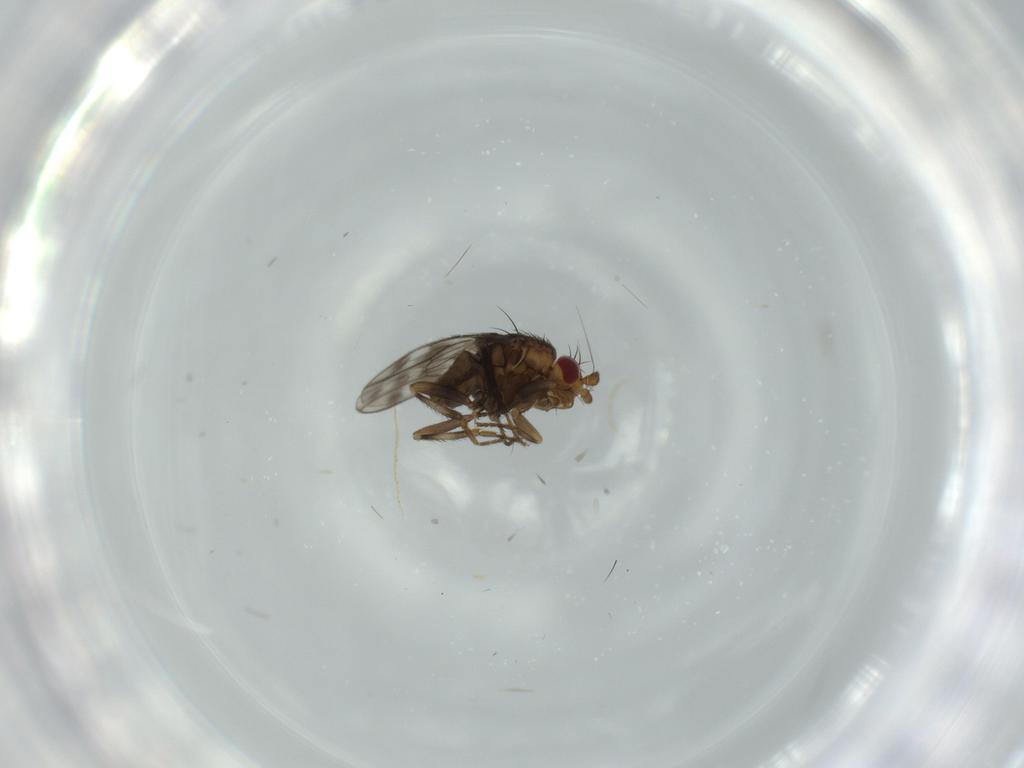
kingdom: Animalia
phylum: Arthropoda
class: Insecta
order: Diptera
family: Sphaeroceridae
